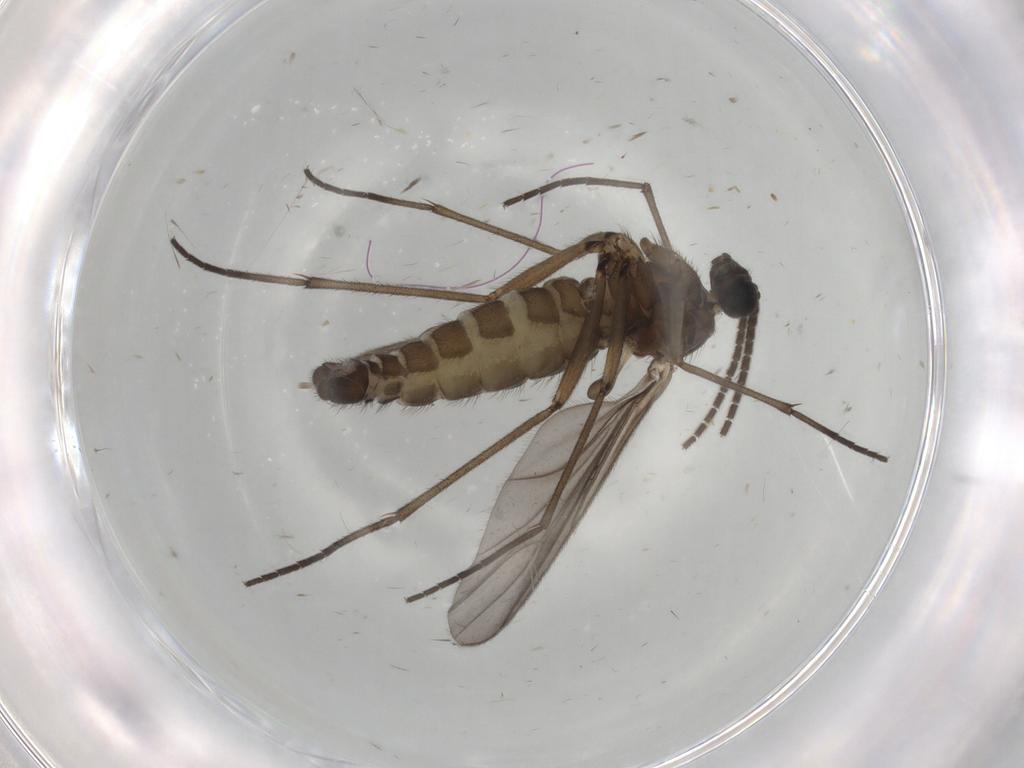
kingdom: Animalia
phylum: Arthropoda
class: Insecta
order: Diptera
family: Sciaridae
